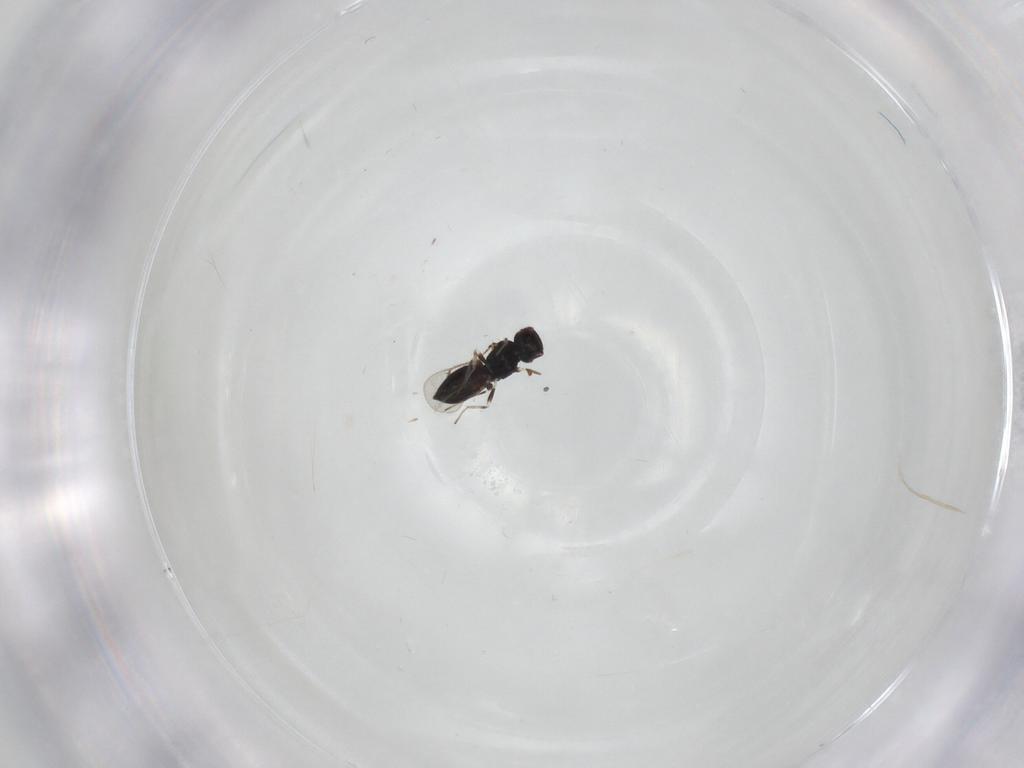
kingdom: Animalia
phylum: Arthropoda
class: Insecta
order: Hymenoptera
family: Eulophidae
